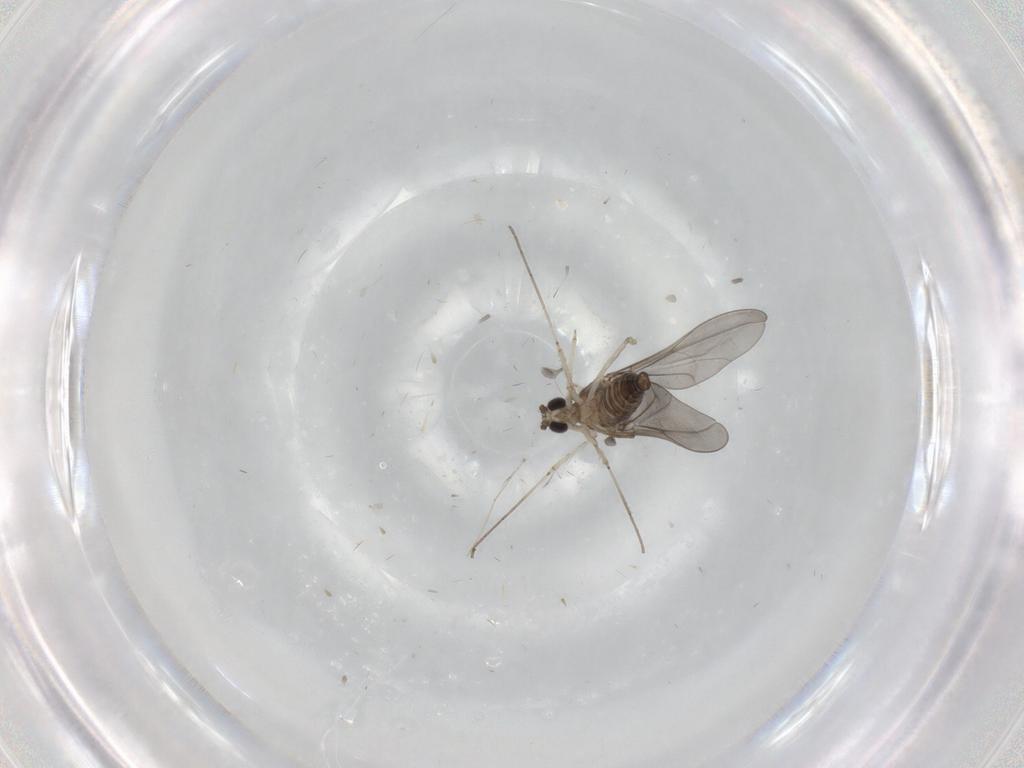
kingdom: Animalia
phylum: Arthropoda
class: Insecta
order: Diptera
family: Cecidomyiidae
